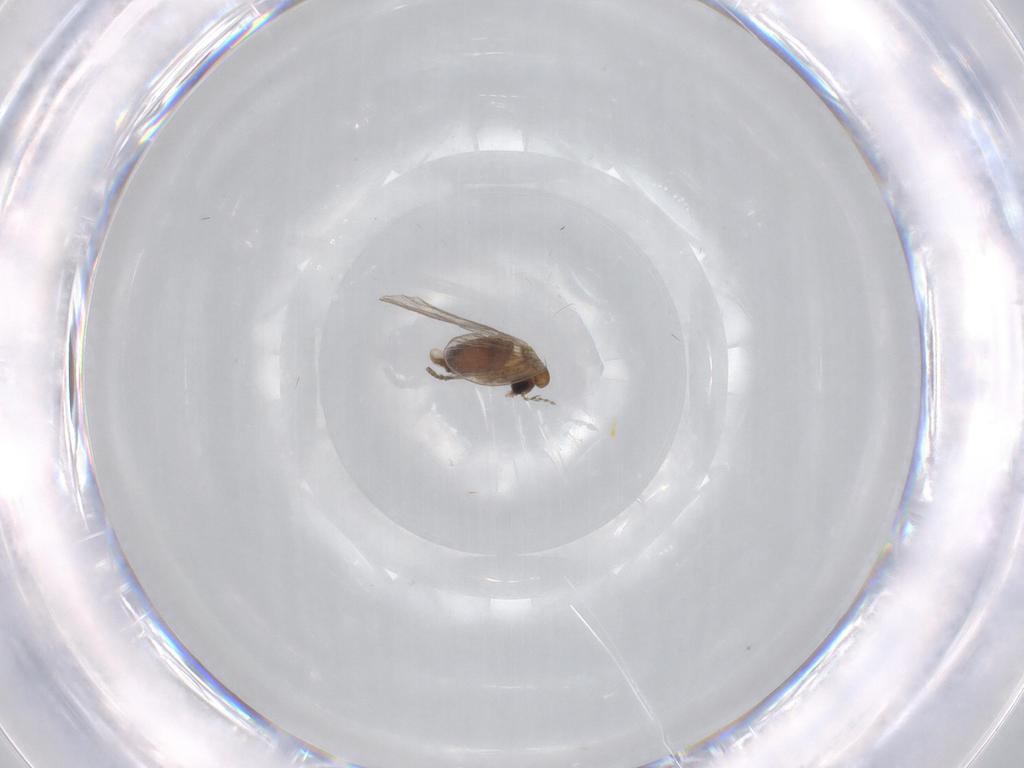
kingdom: Animalia
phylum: Arthropoda
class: Insecta
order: Diptera
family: Psychodidae
